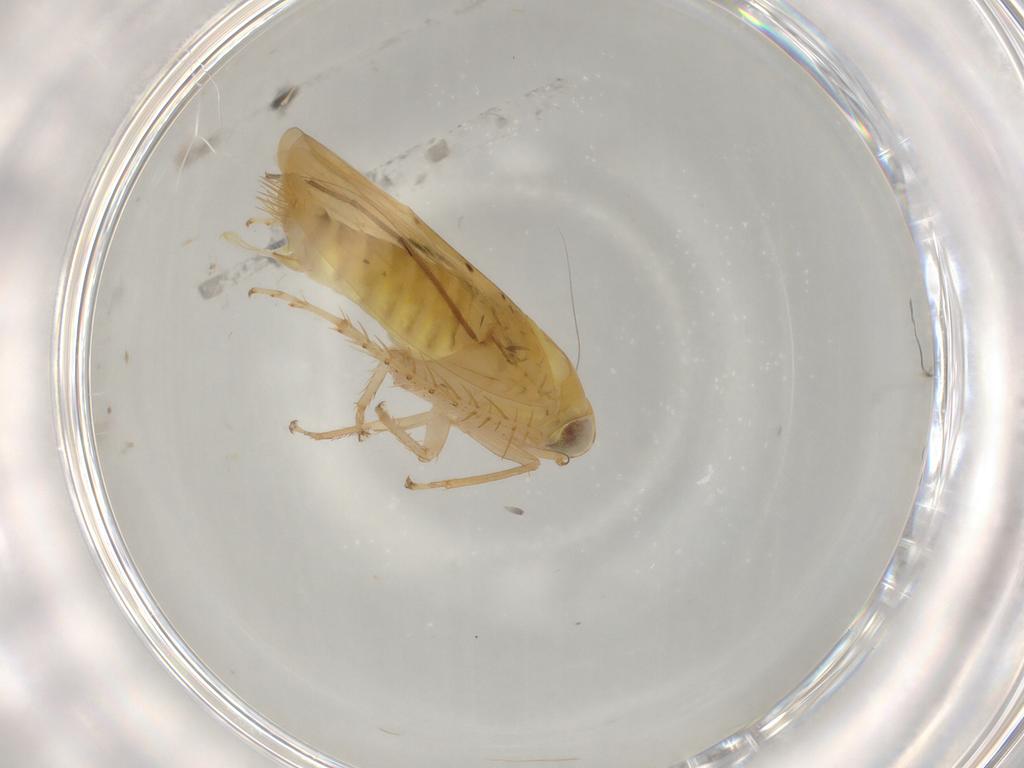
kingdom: Animalia
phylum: Arthropoda
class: Insecta
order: Hemiptera
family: Cicadellidae
